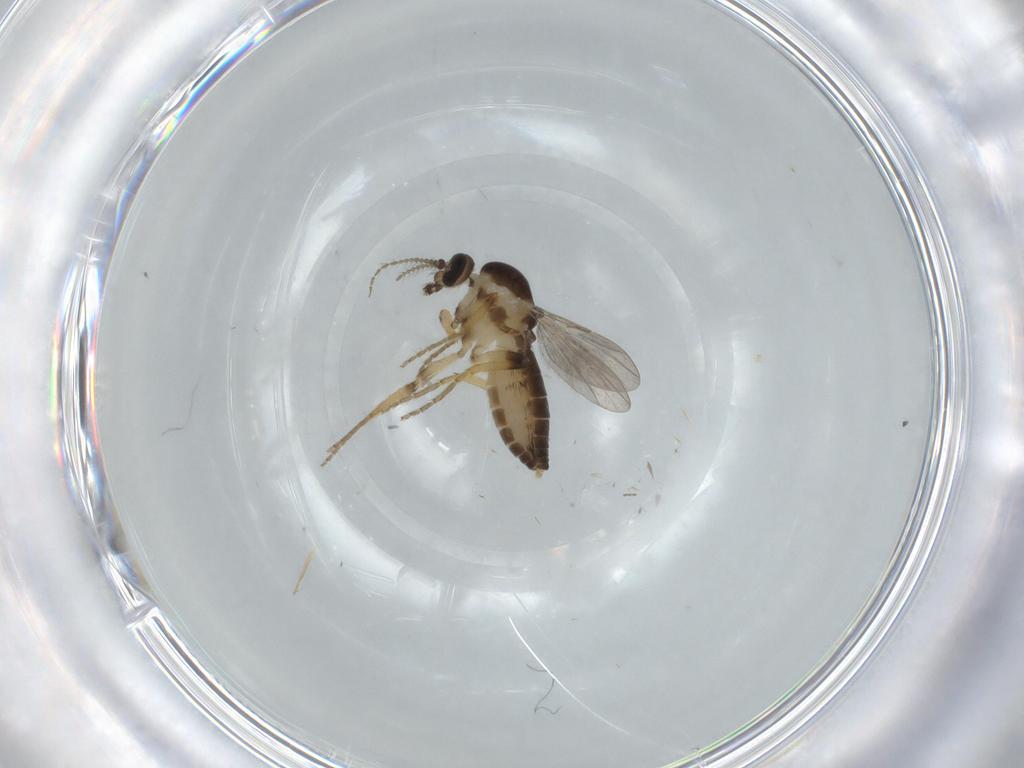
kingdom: Animalia
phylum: Arthropoda
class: Insecta
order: Diptera
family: Ceratopogonidae
